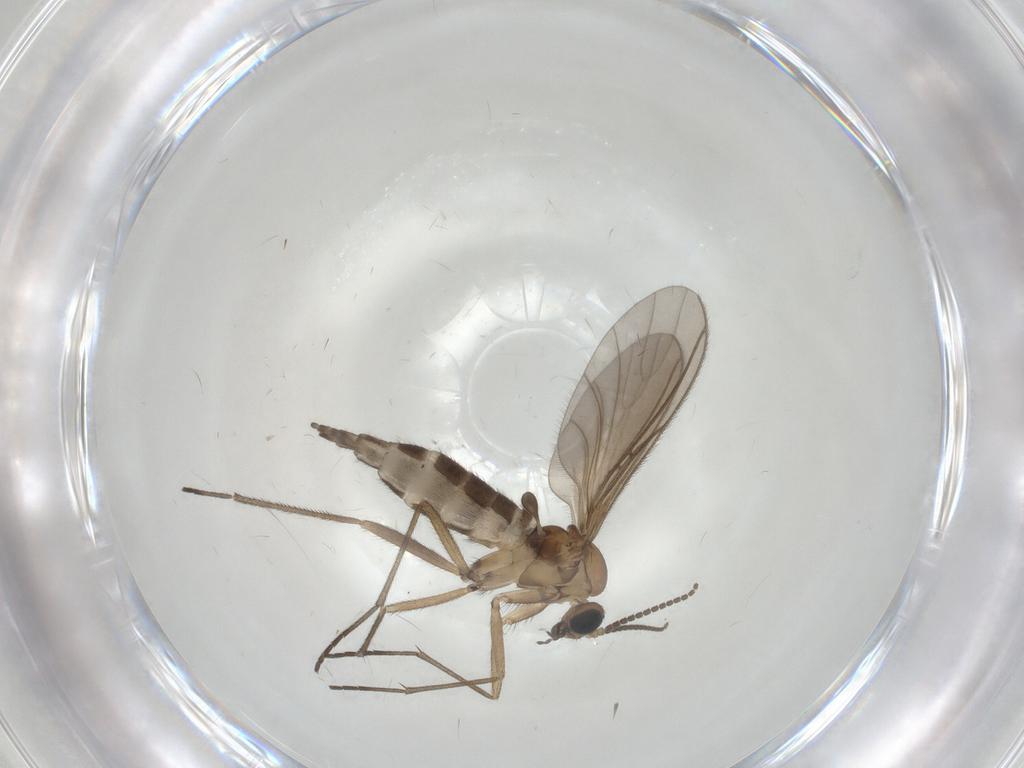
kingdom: Animalia
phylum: Arthropoda
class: Insecta
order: Diptera
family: Sciaridae
